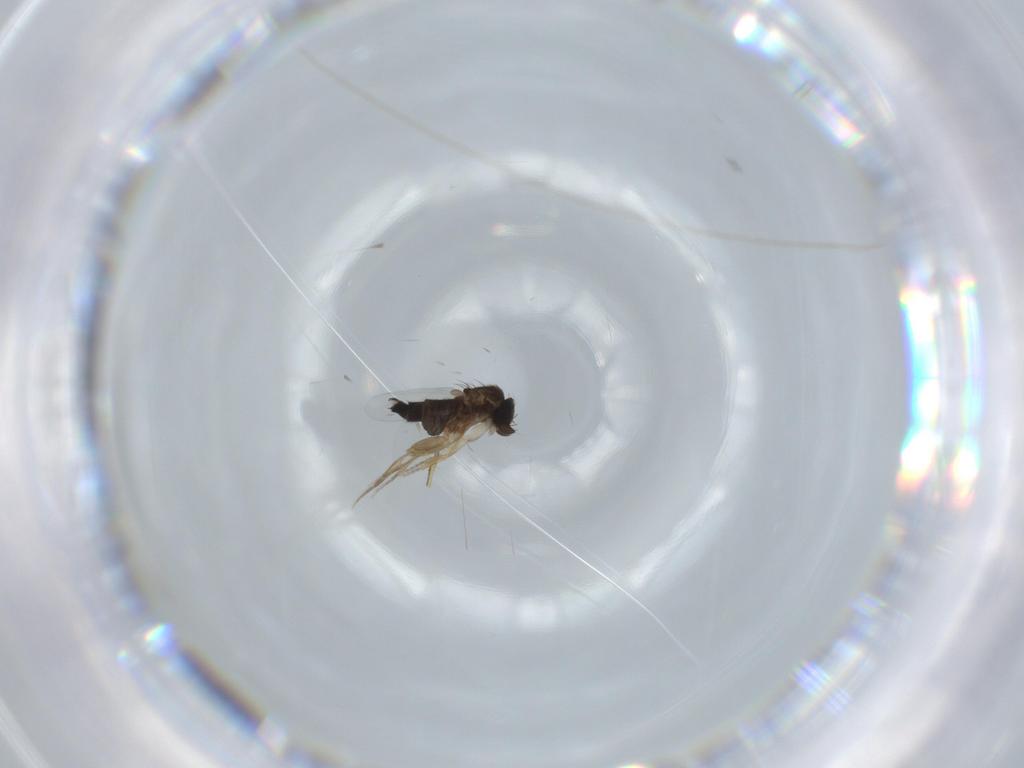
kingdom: Animalia
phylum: Arthropoda
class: Insecta
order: Diptera
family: Phoridae
